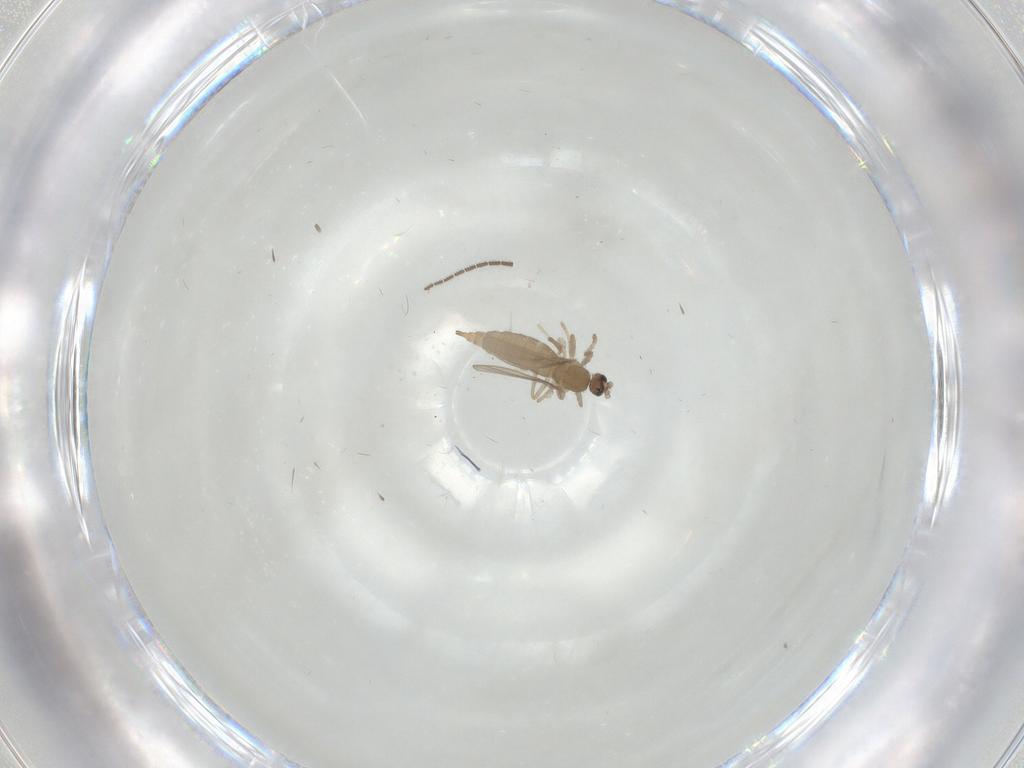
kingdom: Animalia
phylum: Arthropoda
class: Insecta
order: Diptera
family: Cecidomyiidae
